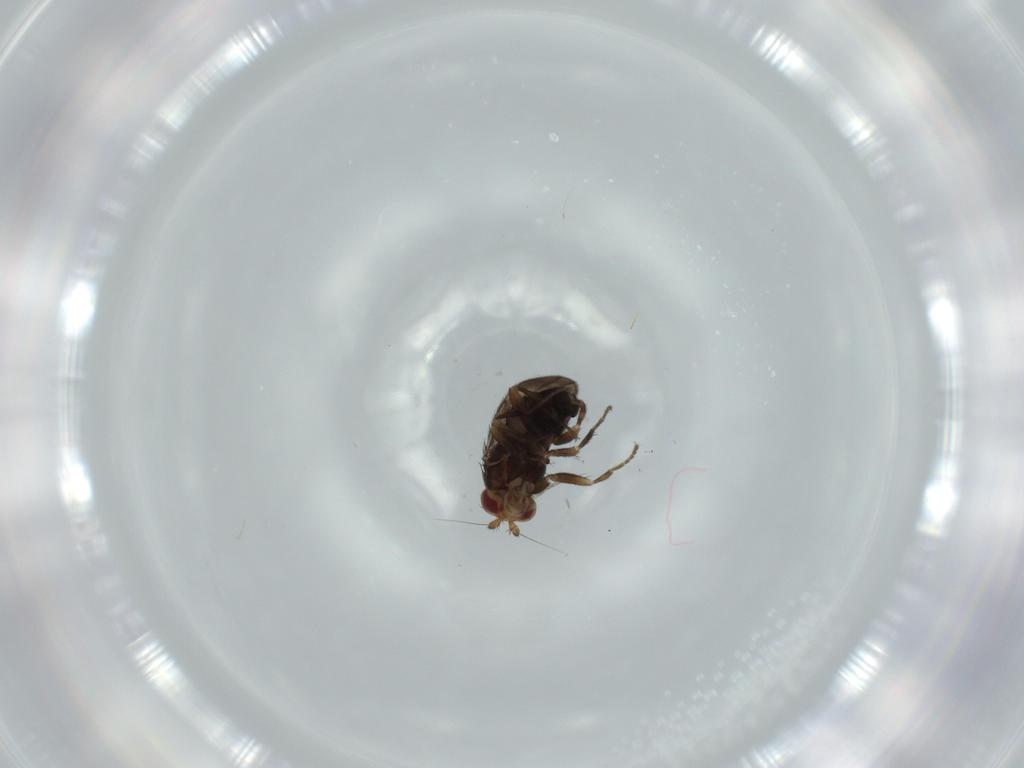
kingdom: Animalia
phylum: Arthropoda
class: Insecta
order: Diptera
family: Cecidomyiidae
